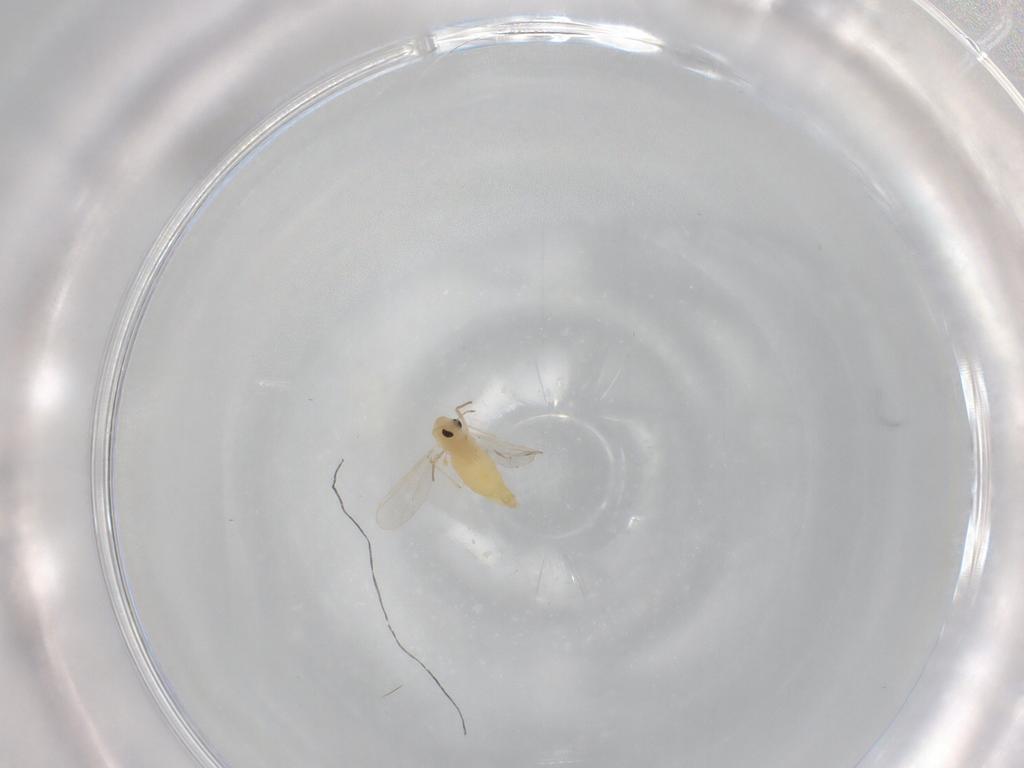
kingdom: Animalia
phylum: Arthropoda
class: Insecta
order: Diptera
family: Chironomidae
